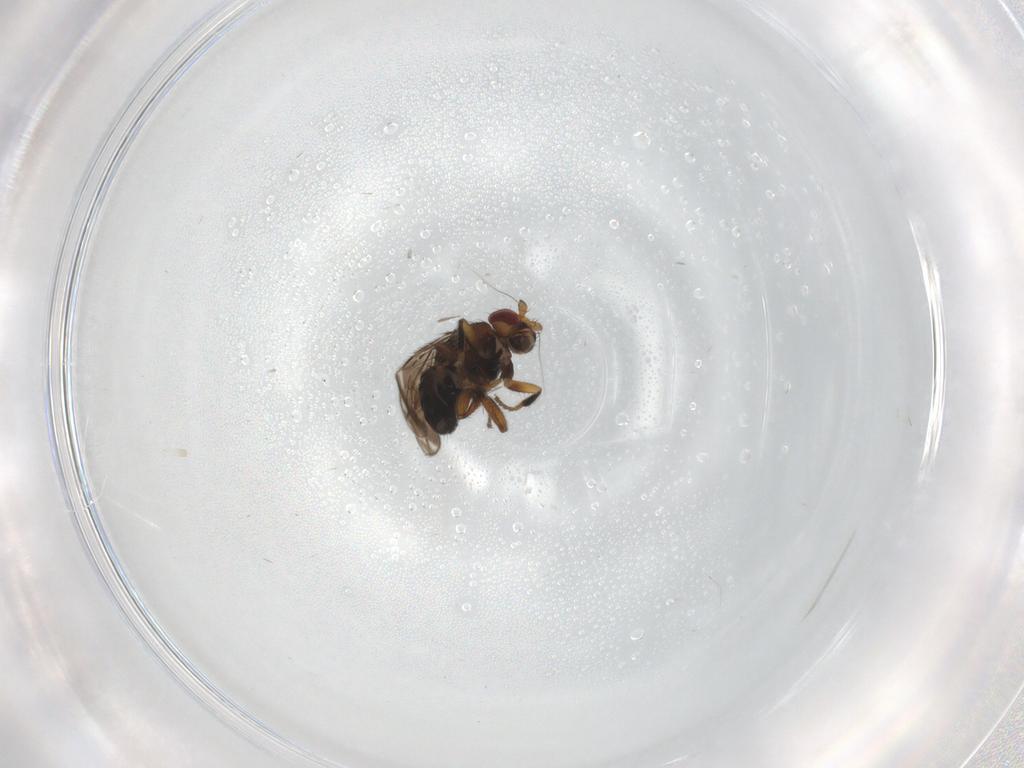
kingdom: Animalia
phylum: Arthropoda
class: Insecta
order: Diptera
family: Sphaeroceridae
